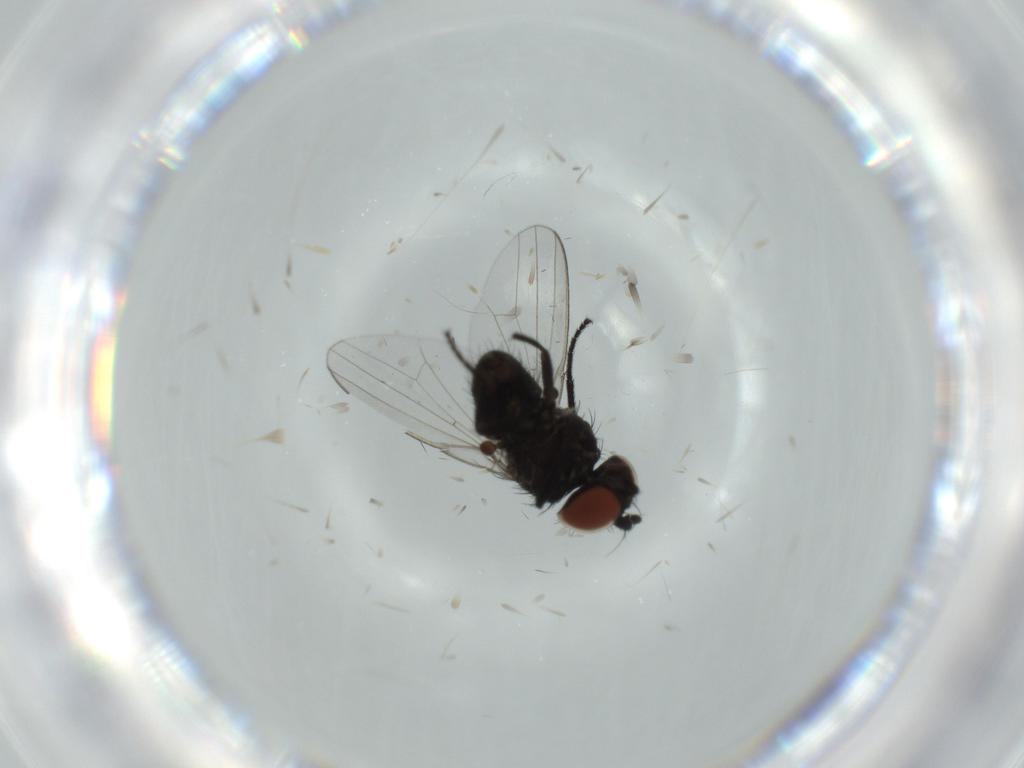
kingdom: Animalia
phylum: Arthropoda
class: Insecta
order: Diptera
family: Milichiidae
